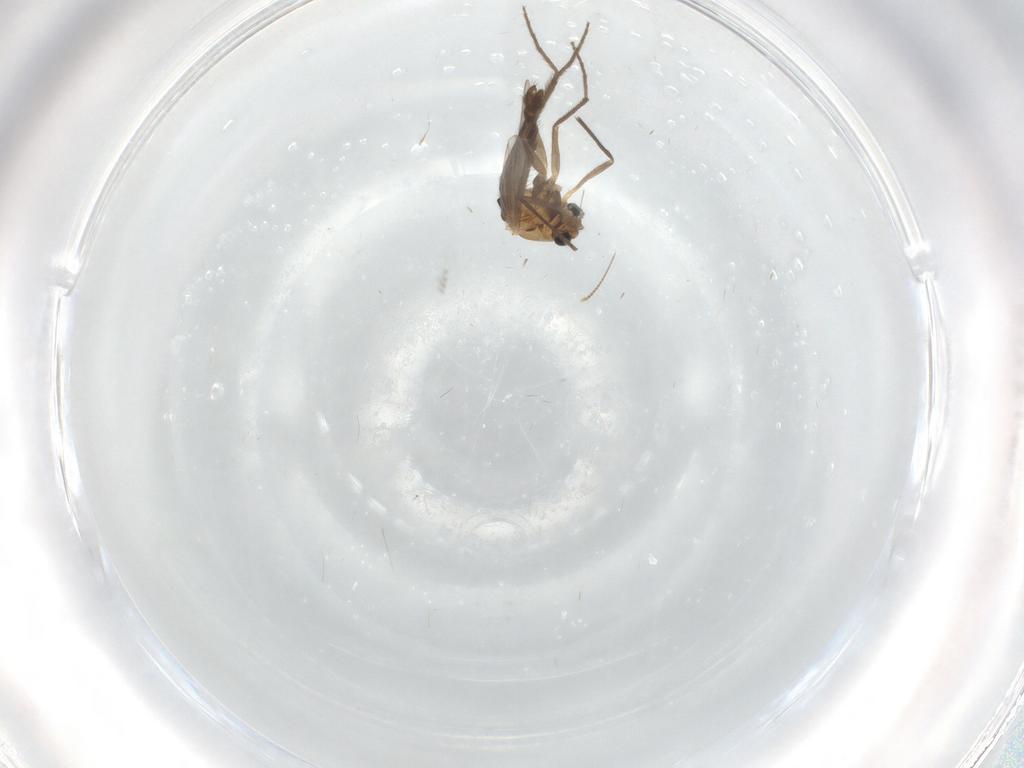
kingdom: Animalia
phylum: Arthropoda
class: Insecta
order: Diptera
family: Chironomidae
